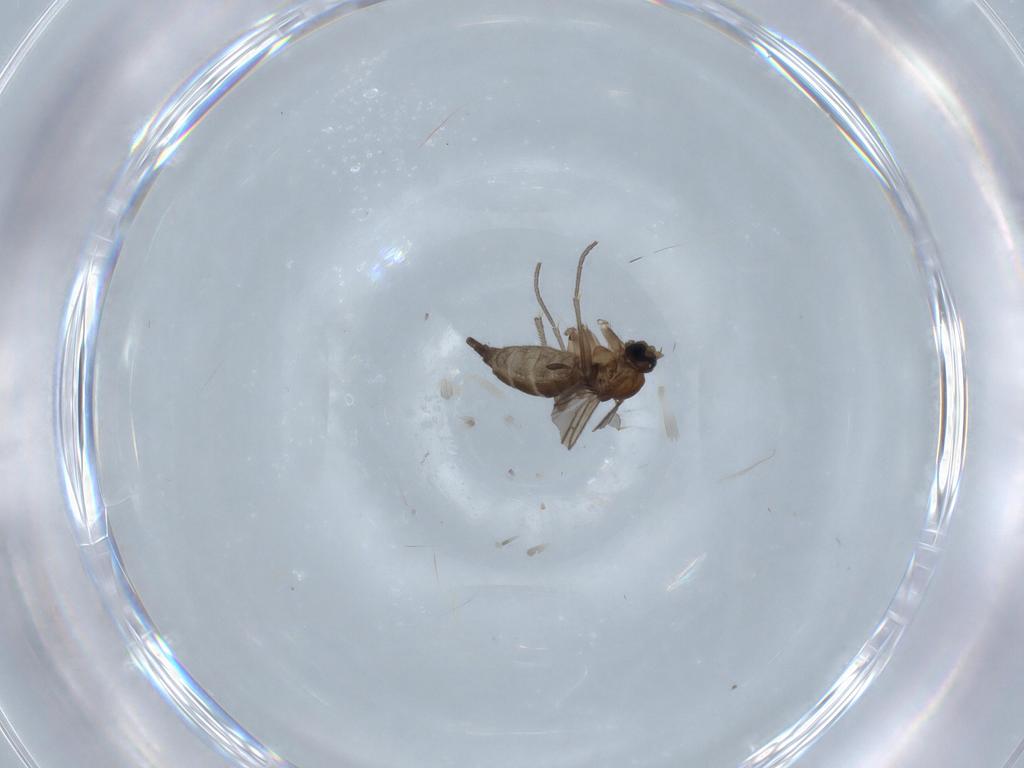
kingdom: Animalia
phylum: Arthropoda
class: Insecta
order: Diptera
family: Sciaridae
